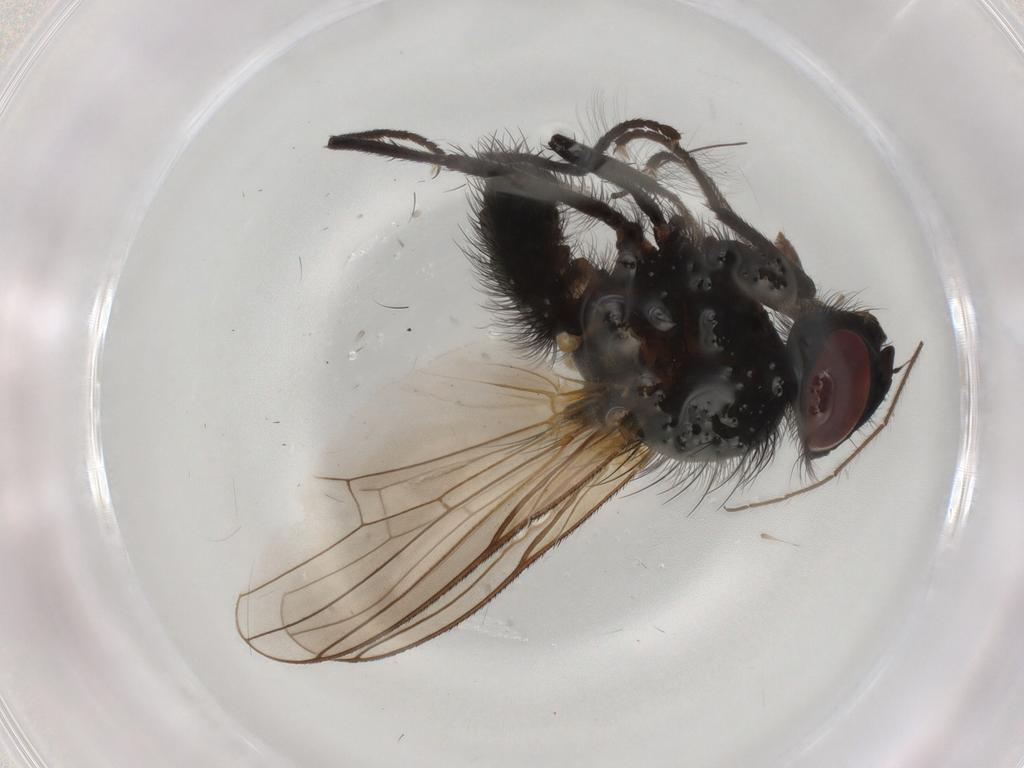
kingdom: Animalia
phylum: Arthropoda
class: Insecta
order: Diptera
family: Anthomyiidae
